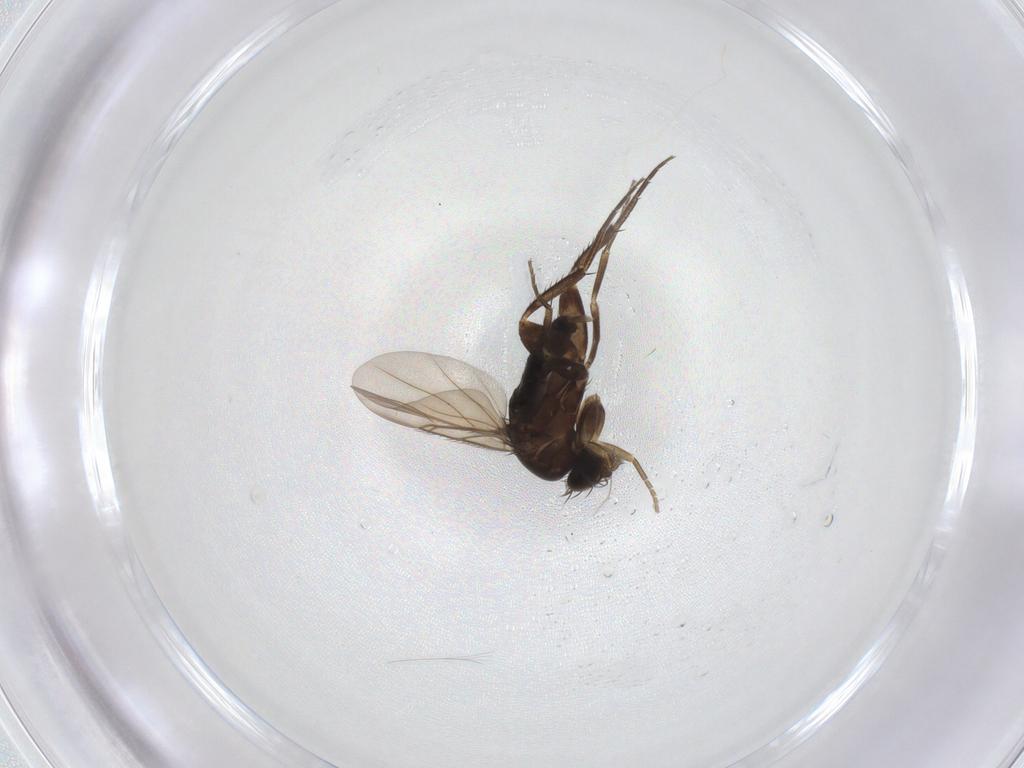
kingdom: Animalia
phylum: Arthropoda
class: Insecta
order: Diptera
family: Phoridae
